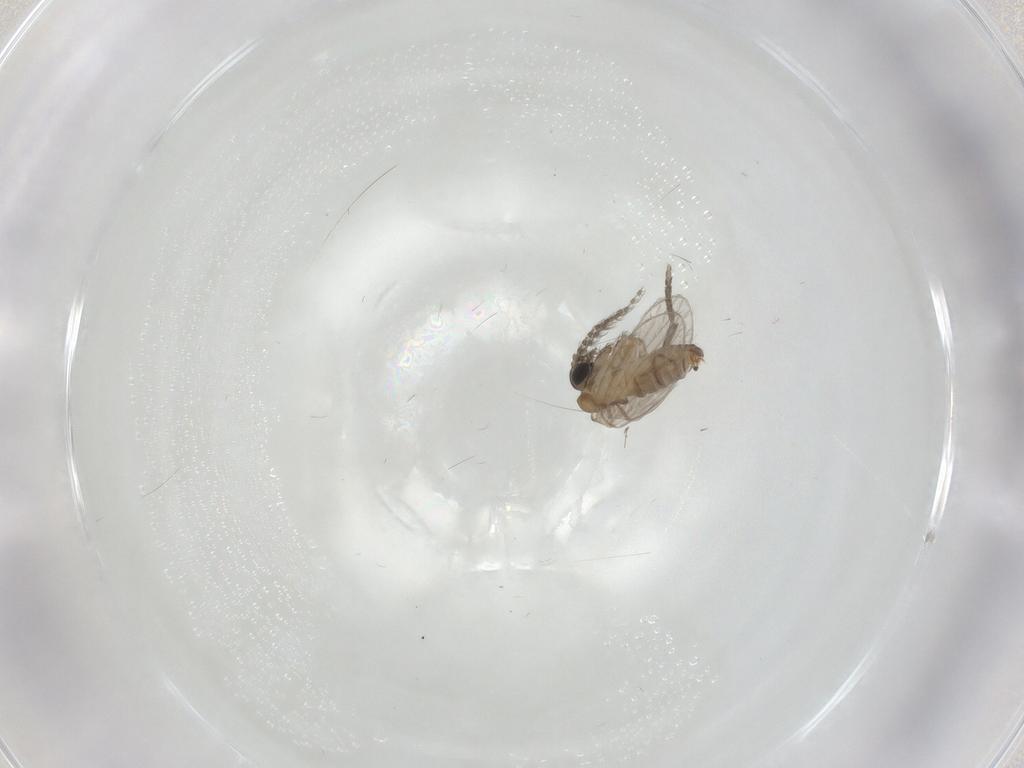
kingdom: Animalia
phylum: Arthropoda
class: Insecta
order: Diptera
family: Psychodidae
